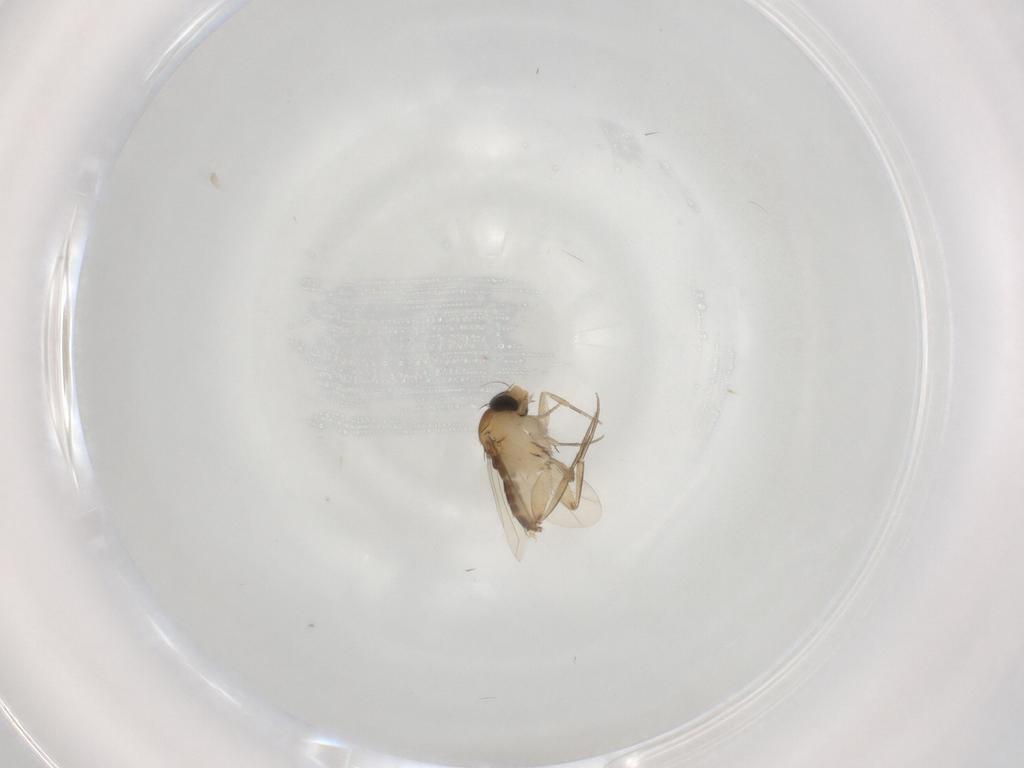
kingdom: Animalia
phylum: Arthropoda
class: Insecta
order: Diptera
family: Phoridae
